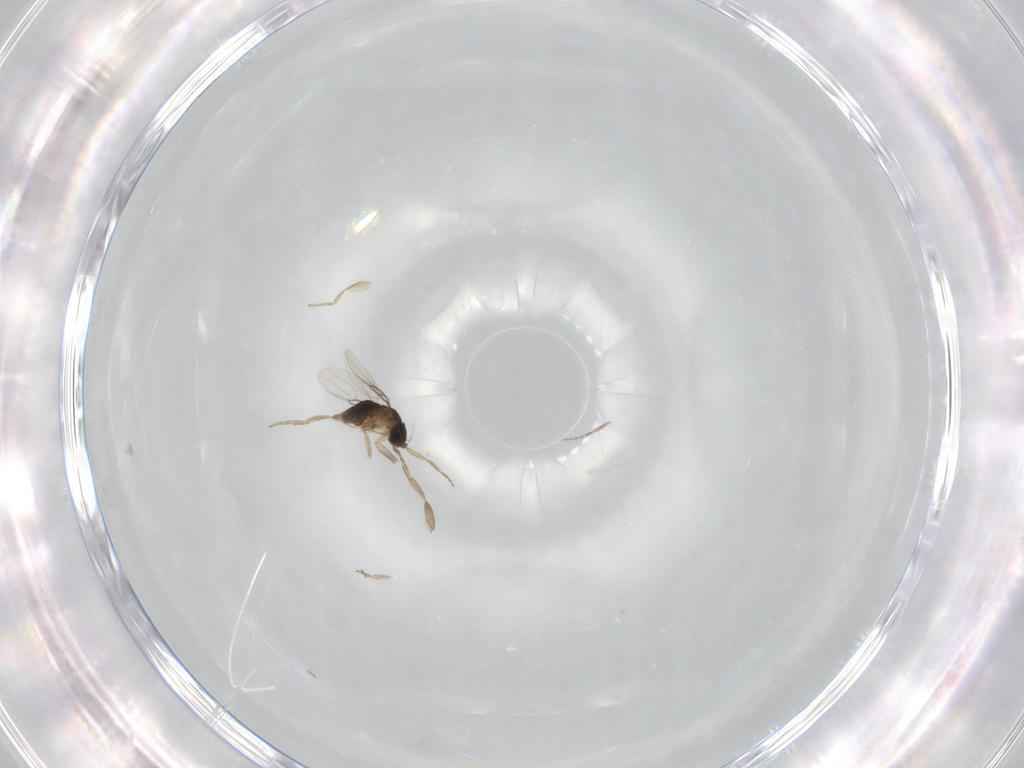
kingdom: Animalia
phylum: Arthropoda
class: Insecta
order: Diptera
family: Phoridae
